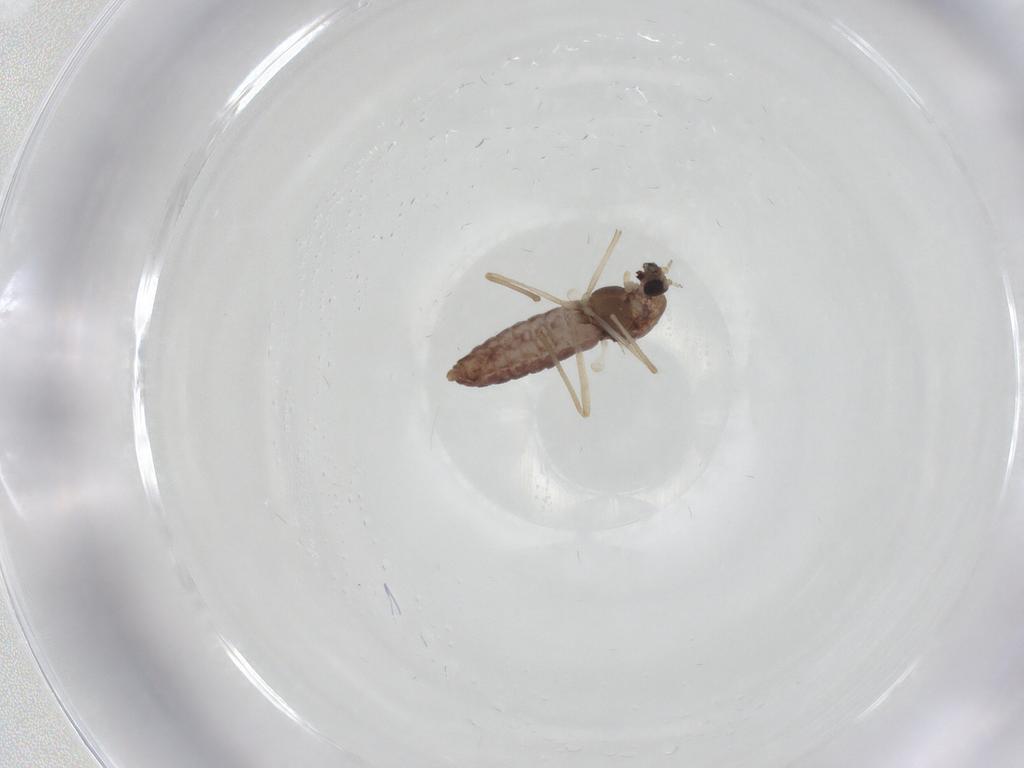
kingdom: Animalia
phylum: Arthropoda
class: Insecta
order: Diptera
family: Chironomidae
